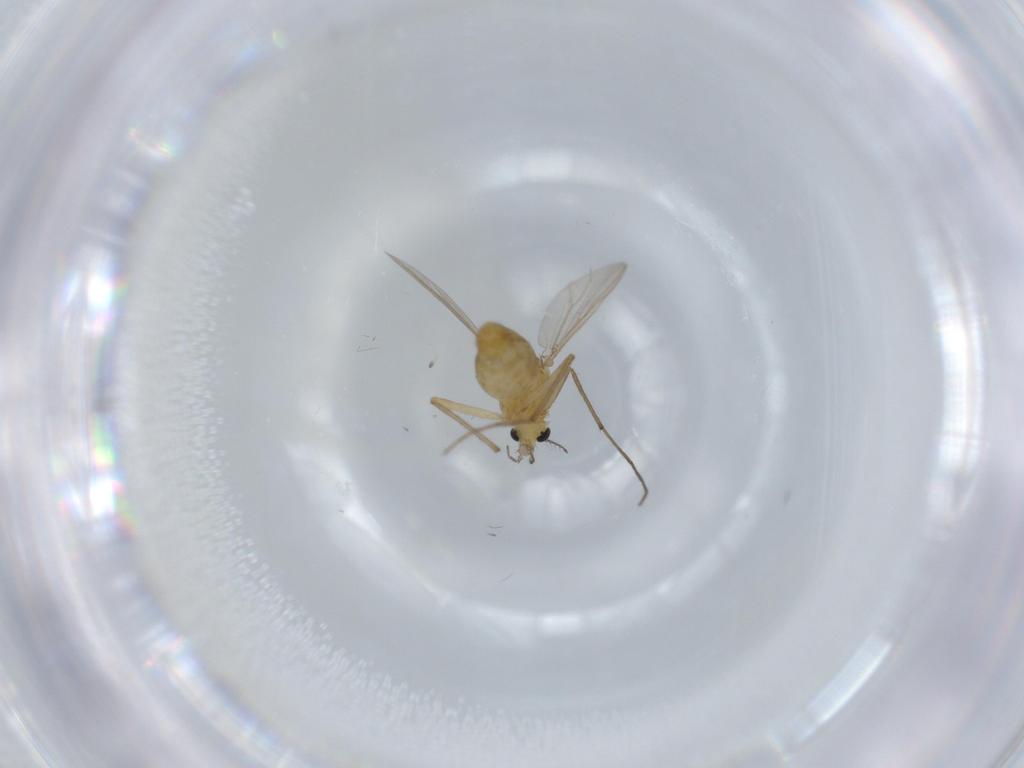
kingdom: Animalia
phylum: Arthropoda
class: Insecta
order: Diptera
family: Chironomidae
